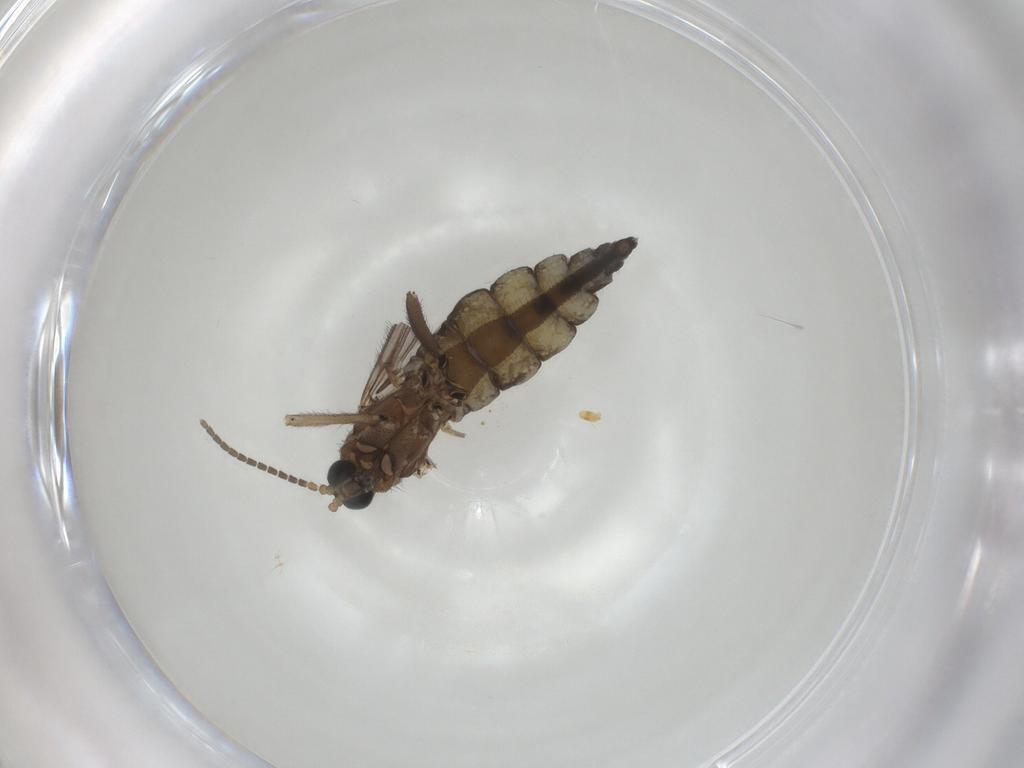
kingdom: Animalia
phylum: Arthropoda
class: Insecta
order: Diptera
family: Sciaridae
